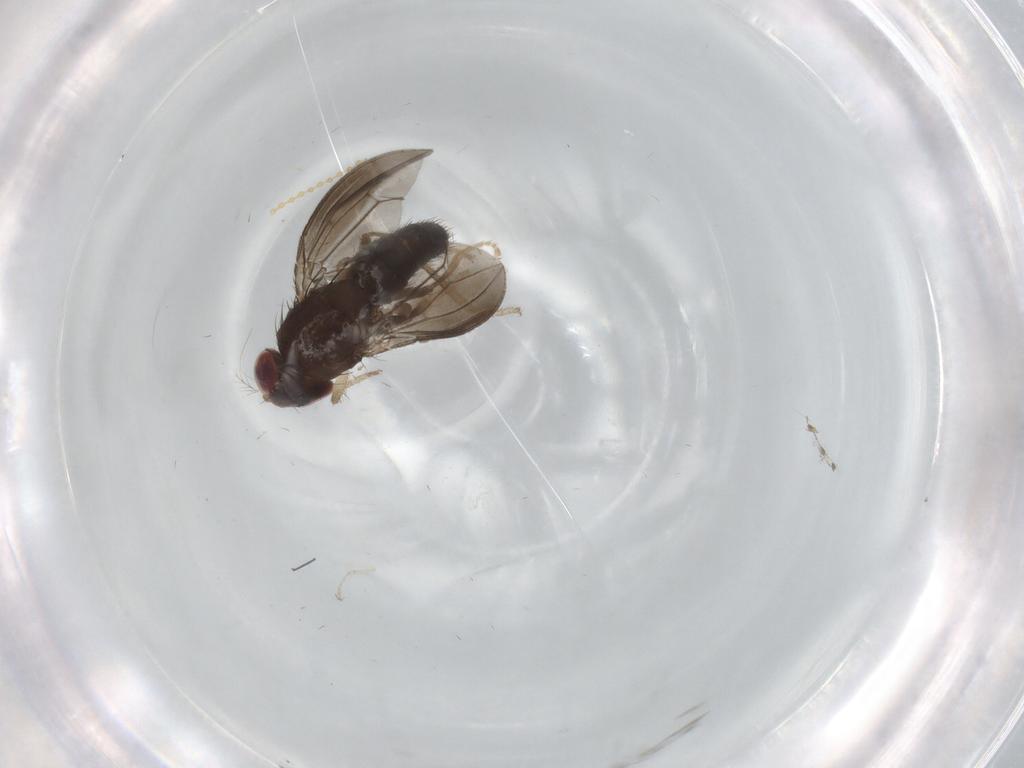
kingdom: Animalia
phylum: Arthropoda
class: Insecta
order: Diptera
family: Cecidomyiidae
